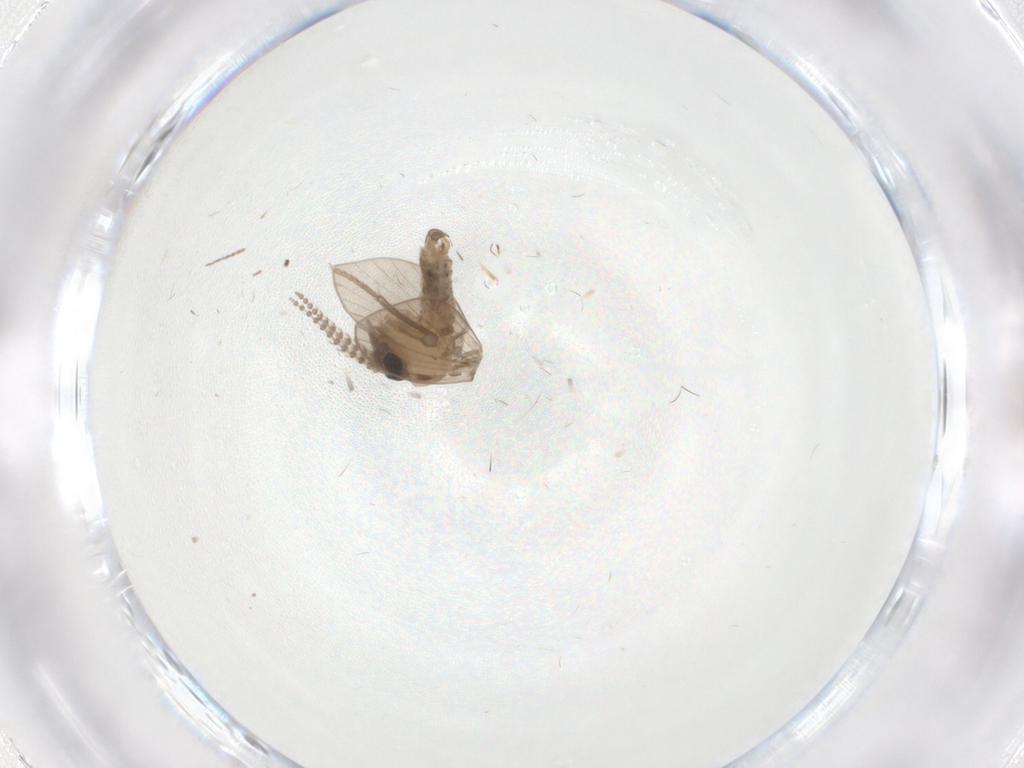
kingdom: Animalia
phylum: Arthropoda
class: Insecta
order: Diptera
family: Psychodidae
